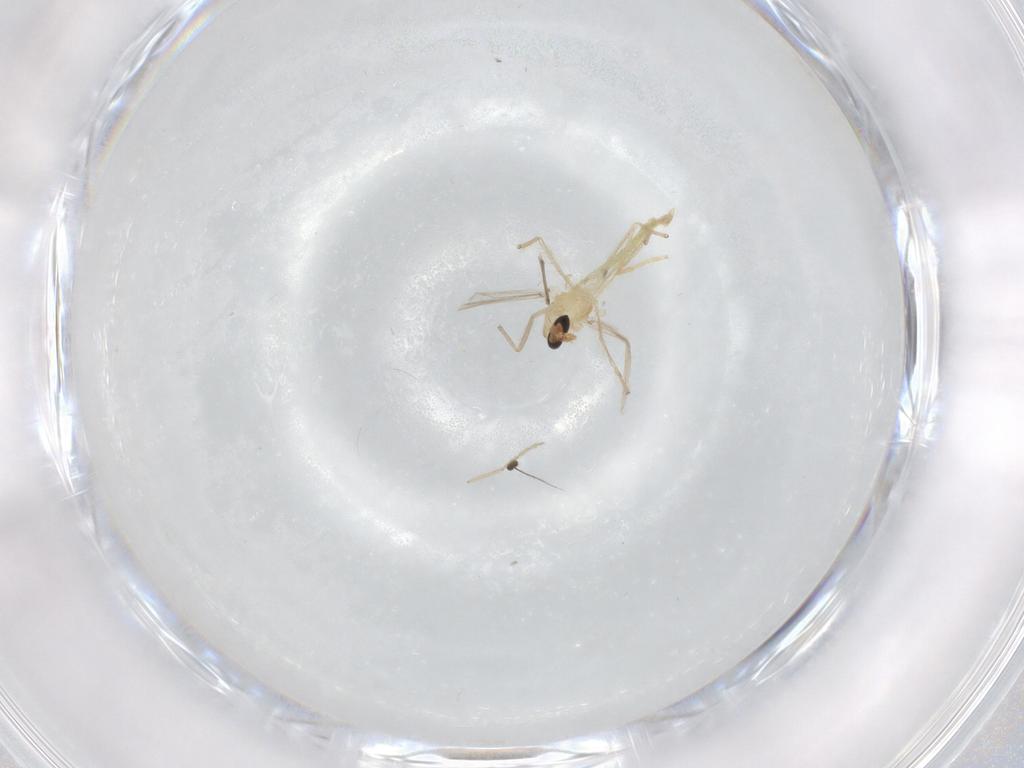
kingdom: Animalia
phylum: Arthropoda
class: Insecta
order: Diptera
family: Chironomidae
